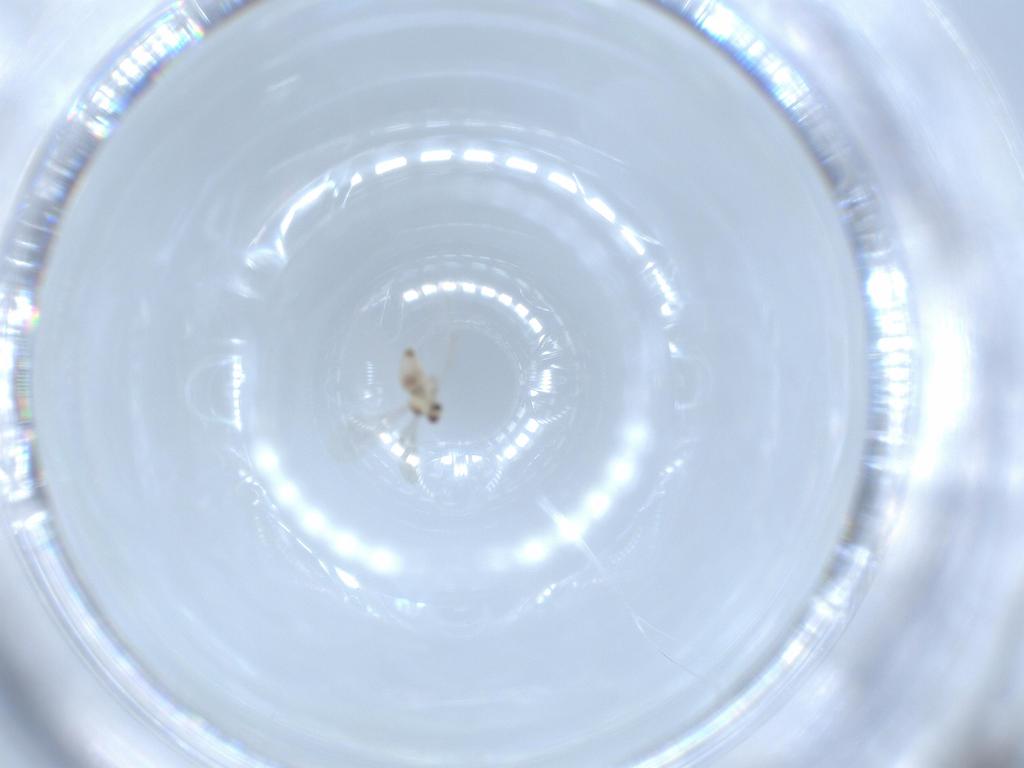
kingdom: Animalia
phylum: Arthropoda
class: Insecta
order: Diptera
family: Cecidomyiidae
